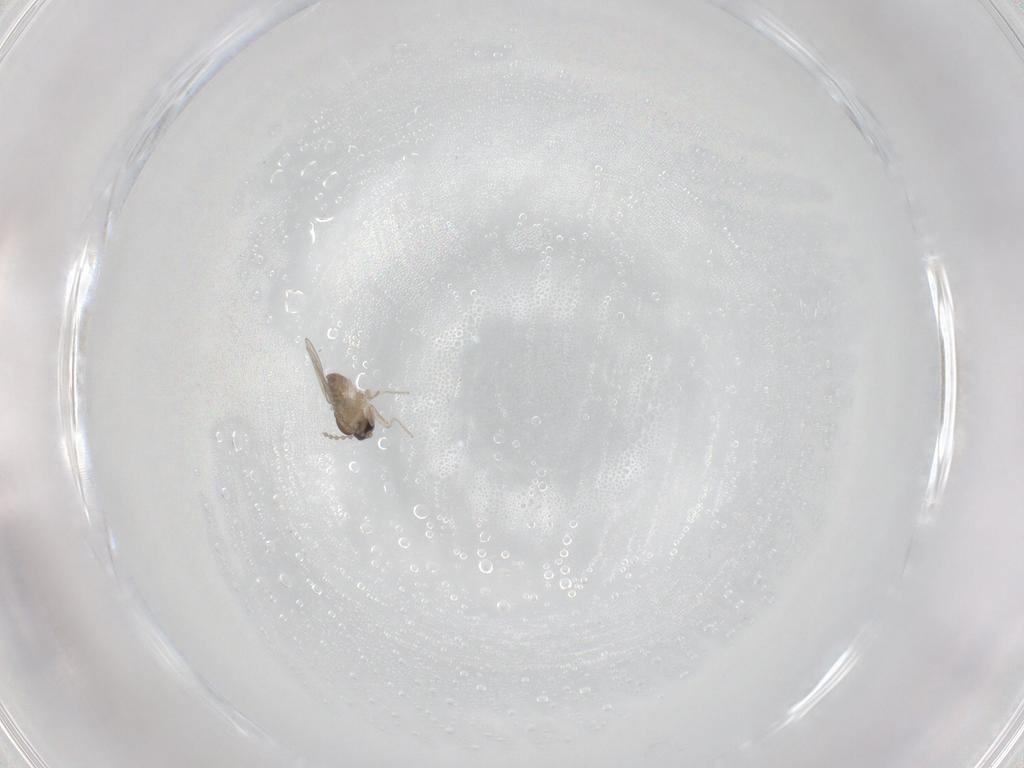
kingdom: Animalia
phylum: Arthropoda
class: Insecta
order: Diptera
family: Cecidomyiidae
